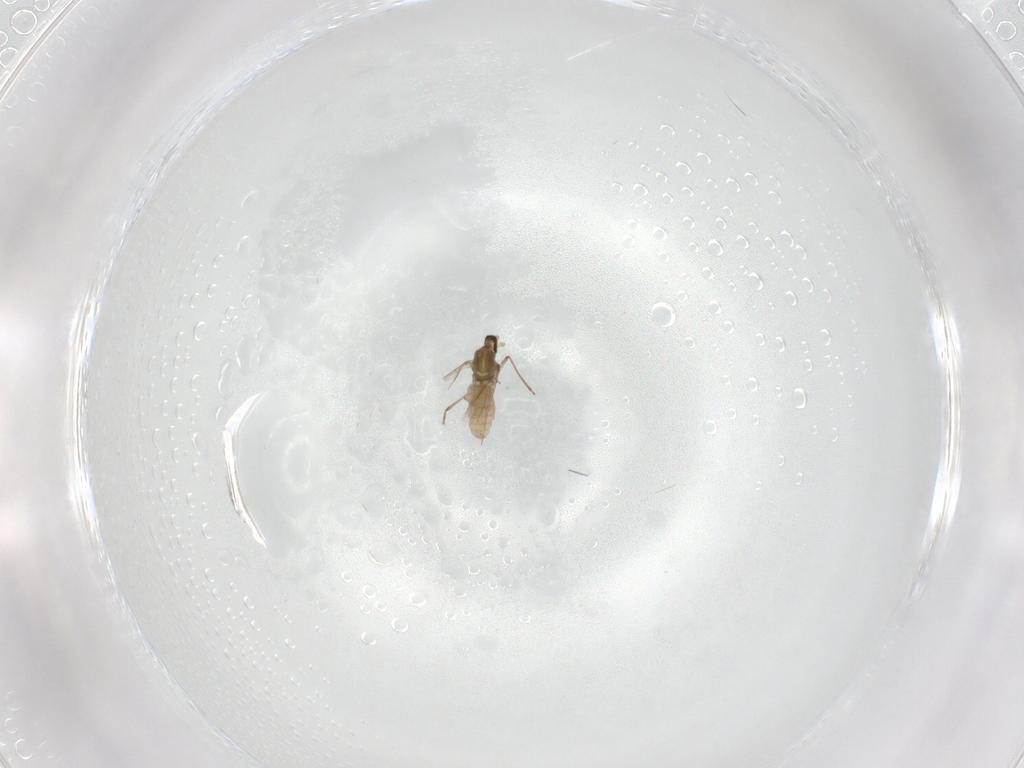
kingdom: Animalia
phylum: Arthropoda
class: Insecta
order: Diptera
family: Cecidomyiidae
